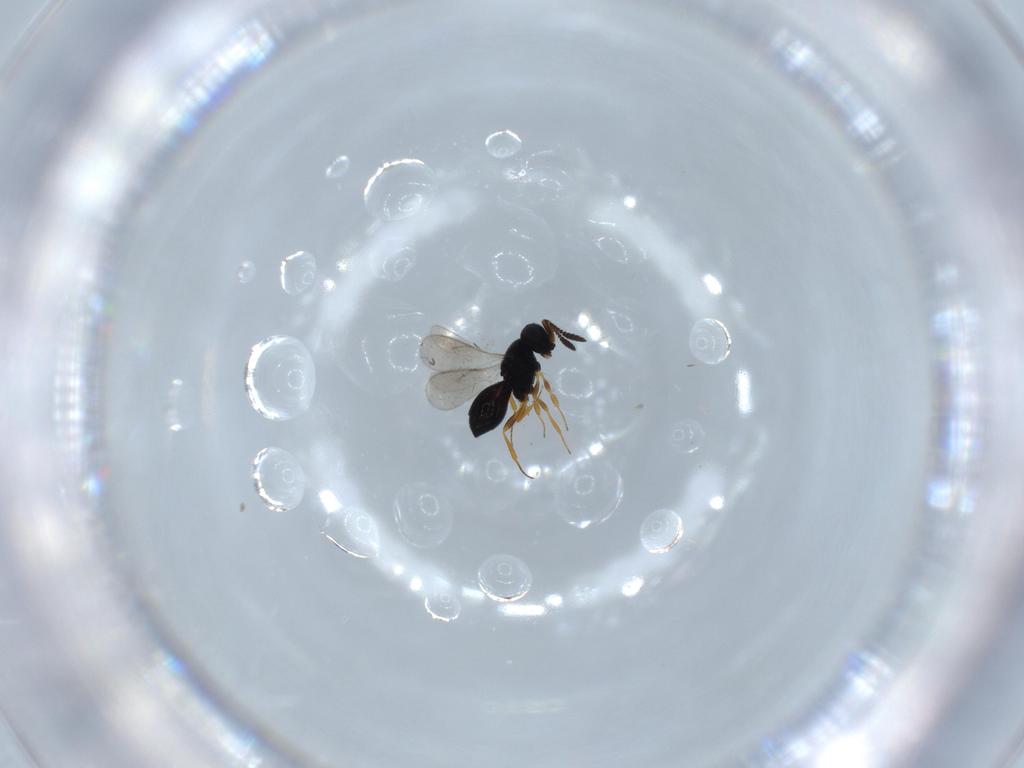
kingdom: Animalia
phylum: Arthropoda
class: Insecta
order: Hymenoptera
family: Scelionidae
